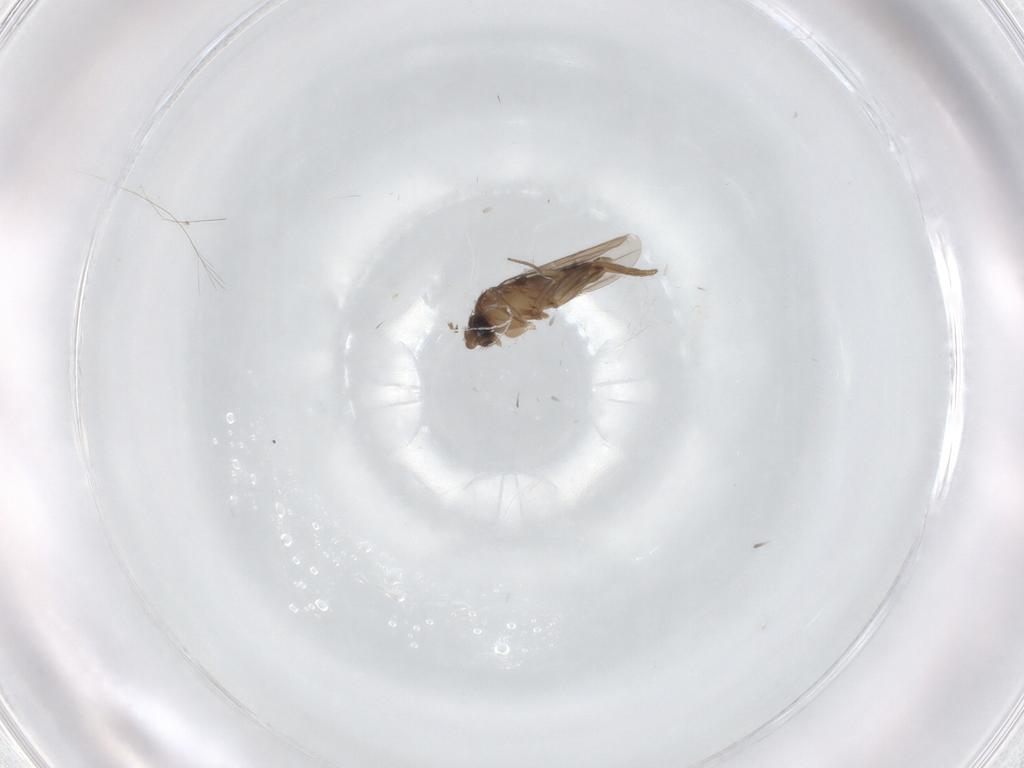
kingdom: Animalia
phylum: Arthropoda
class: Insecta
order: Diptera
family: Phoridae
